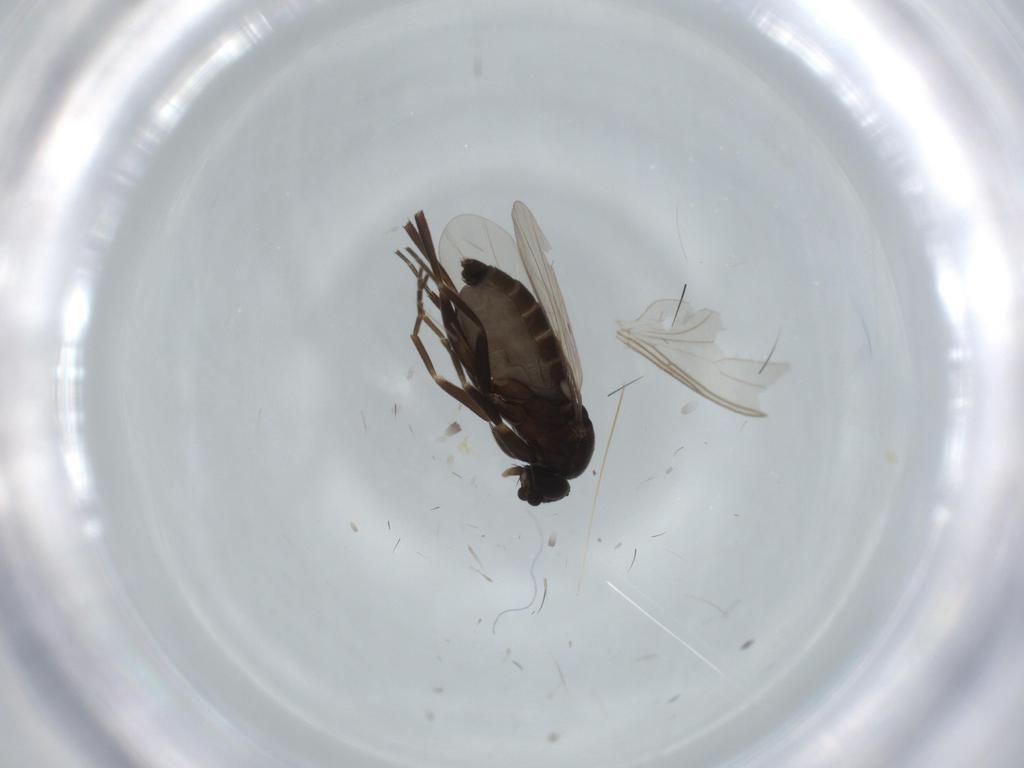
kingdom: Animalia
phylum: Arthropoda
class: Insecta
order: Diptera
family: Phoridae
